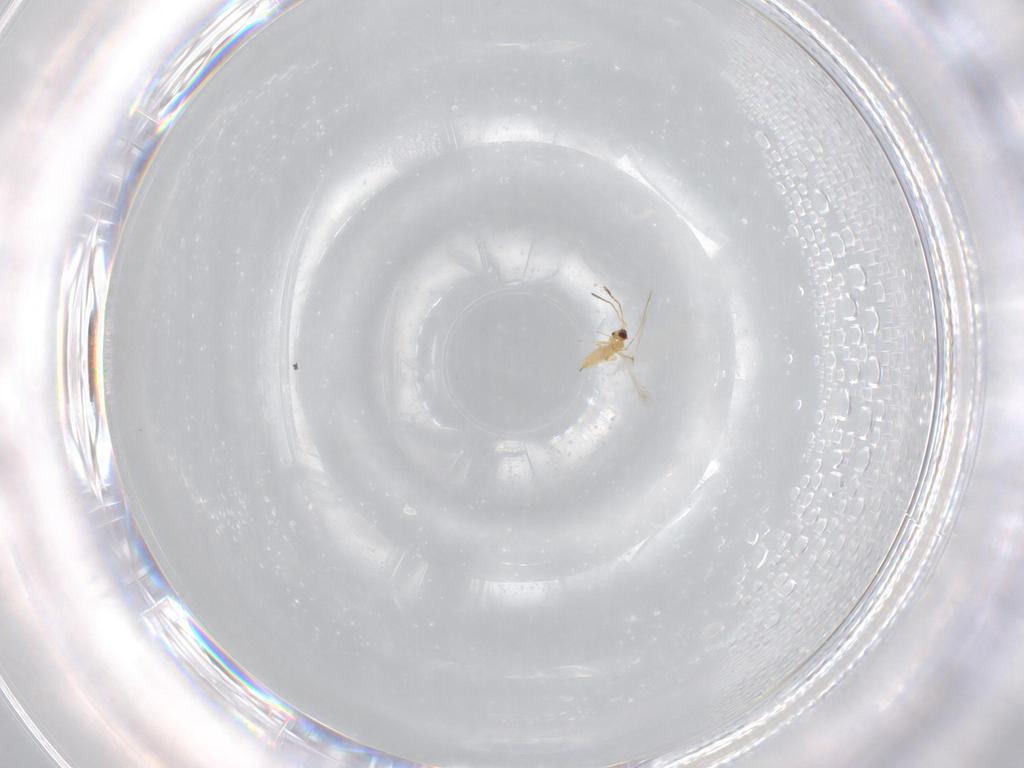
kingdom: Animalia
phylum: Arthropoda
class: Insecta
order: Hymenoptera
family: Mymaridae
